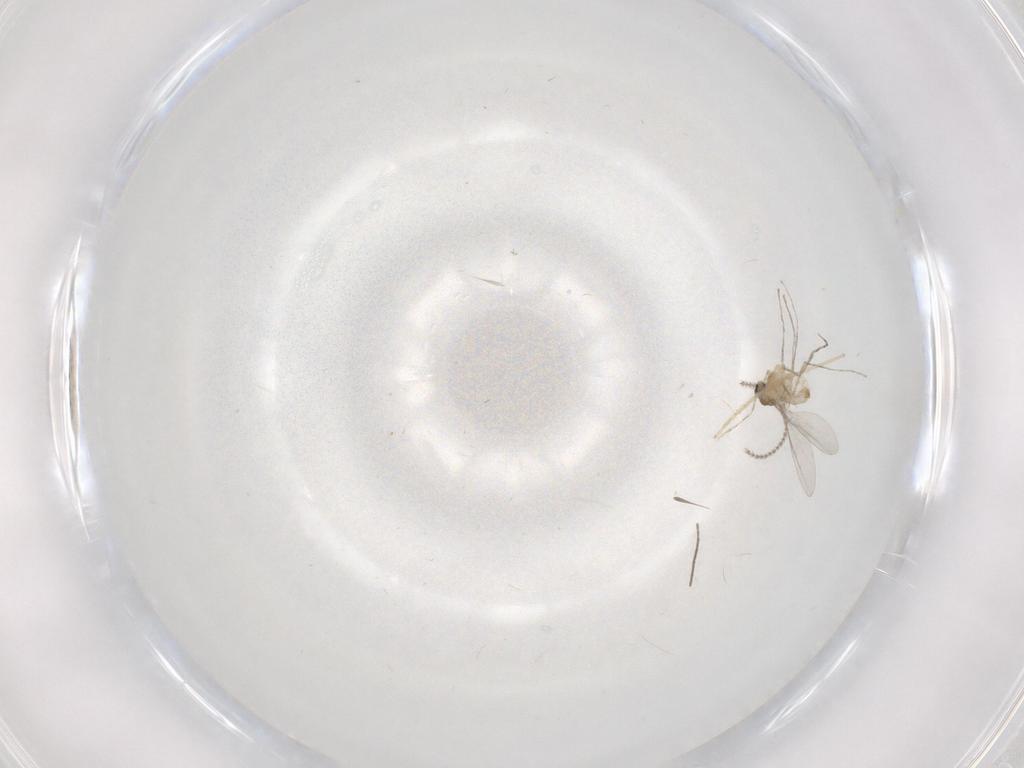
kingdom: Animalia
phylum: Arthropoda
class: Insecta
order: Diptera
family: Cecidomyiidae
